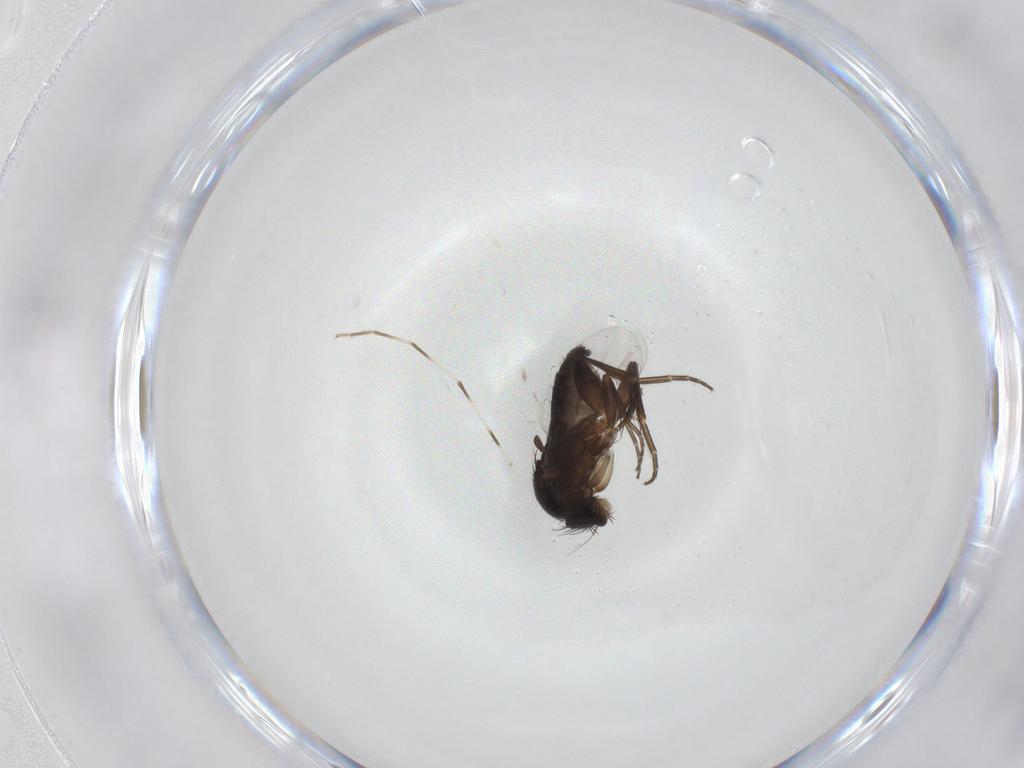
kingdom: Animalia
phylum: Arthropoda
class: Insecta
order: Diptera
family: Phoridae
